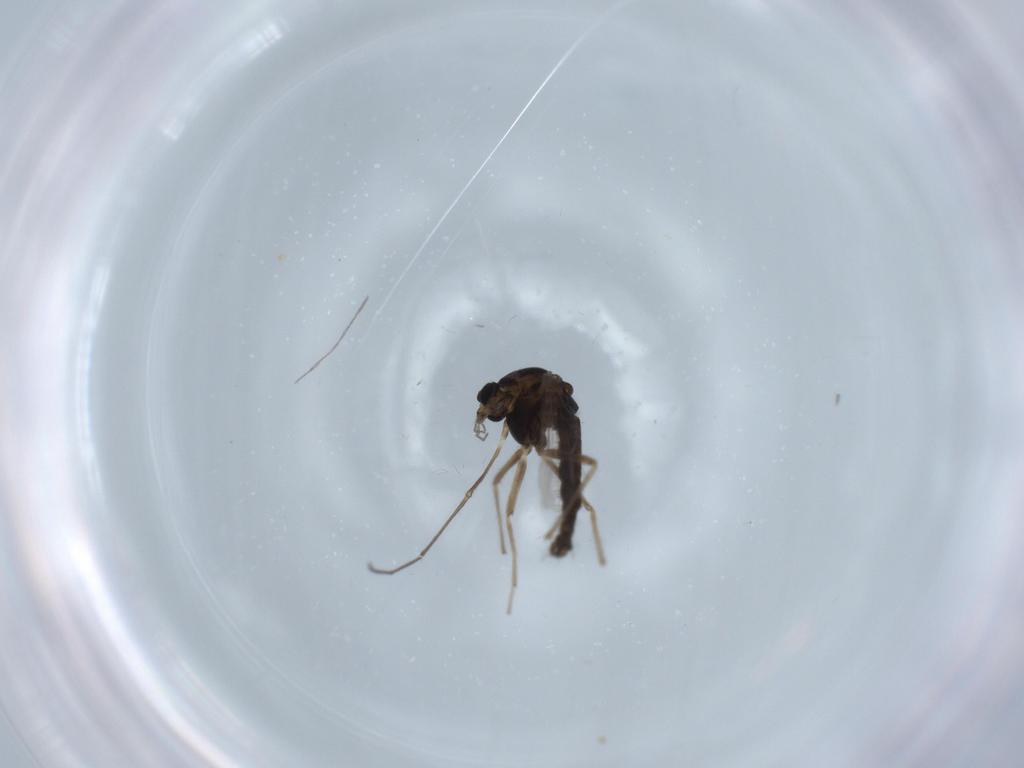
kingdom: Animalia
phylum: Arthropoda
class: Insecta
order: Diptera
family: Chironomidae
